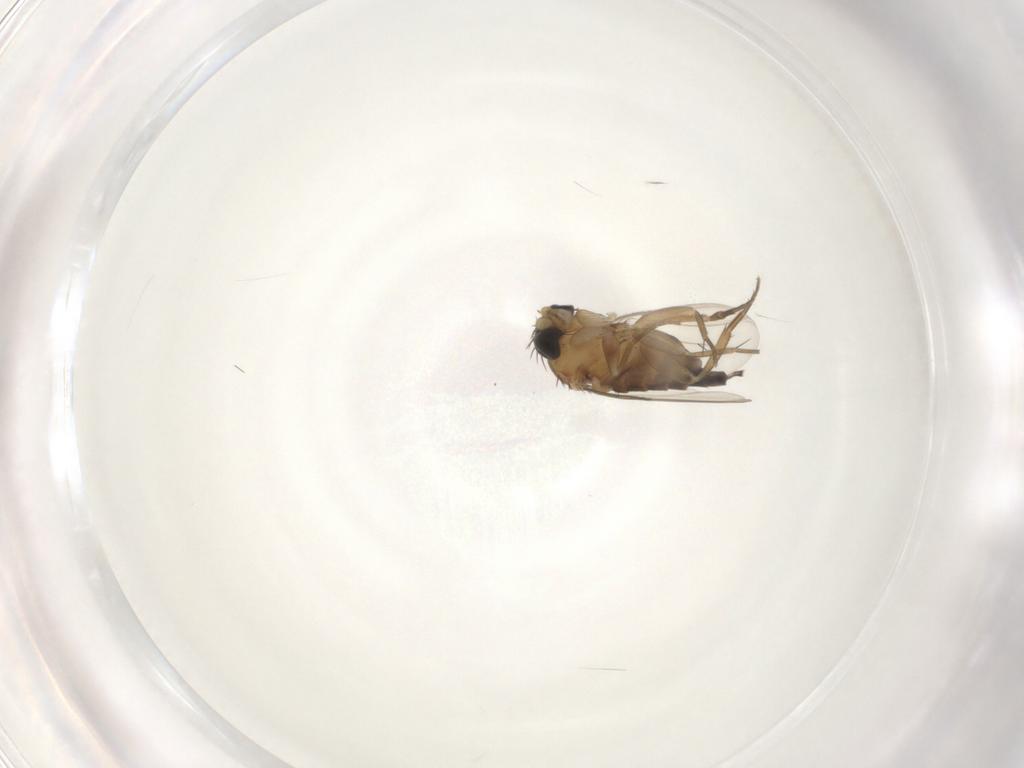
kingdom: Animalia
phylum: Arthropoda
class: Insecta
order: Diptera
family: Phoridae
